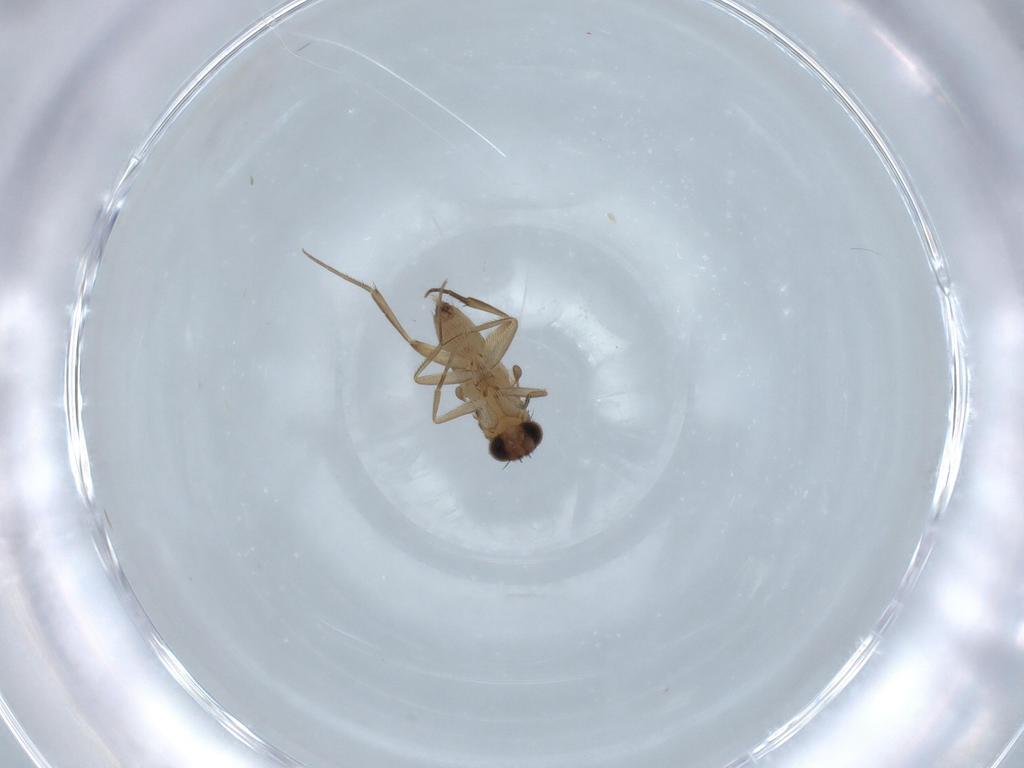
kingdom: Animalia
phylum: Arthropoda
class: Insecta
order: Diptera
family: Phoridae
